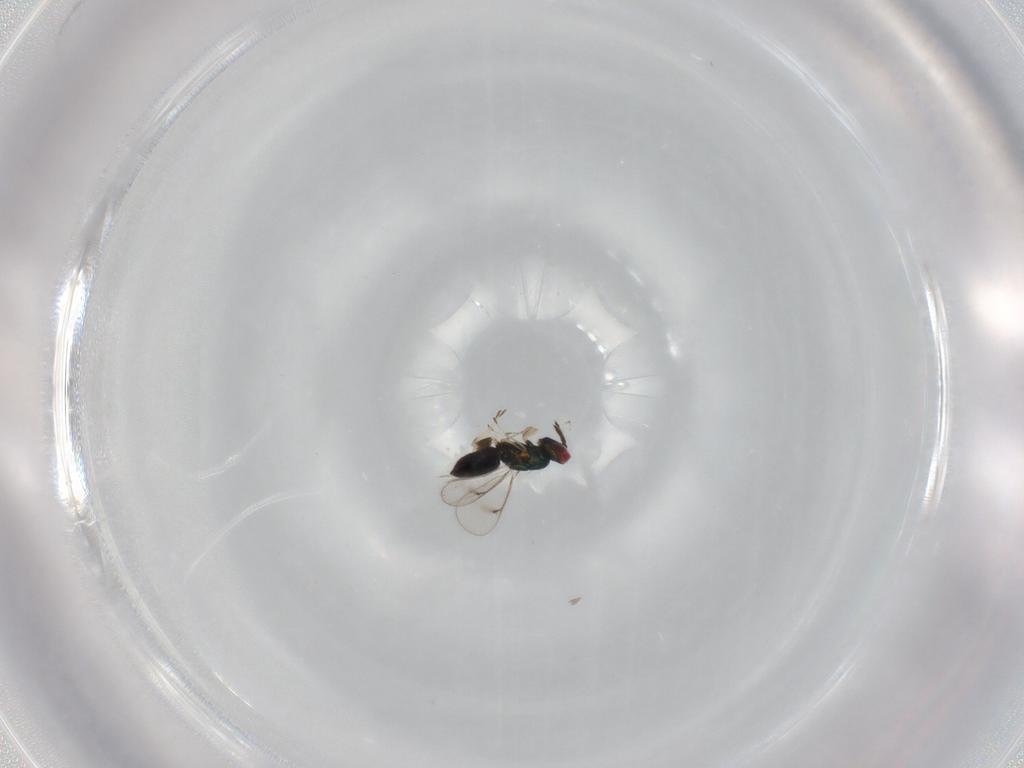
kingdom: Animalia
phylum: Arthropoda
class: Insecta
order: Hymenoptera
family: Eulophidae
